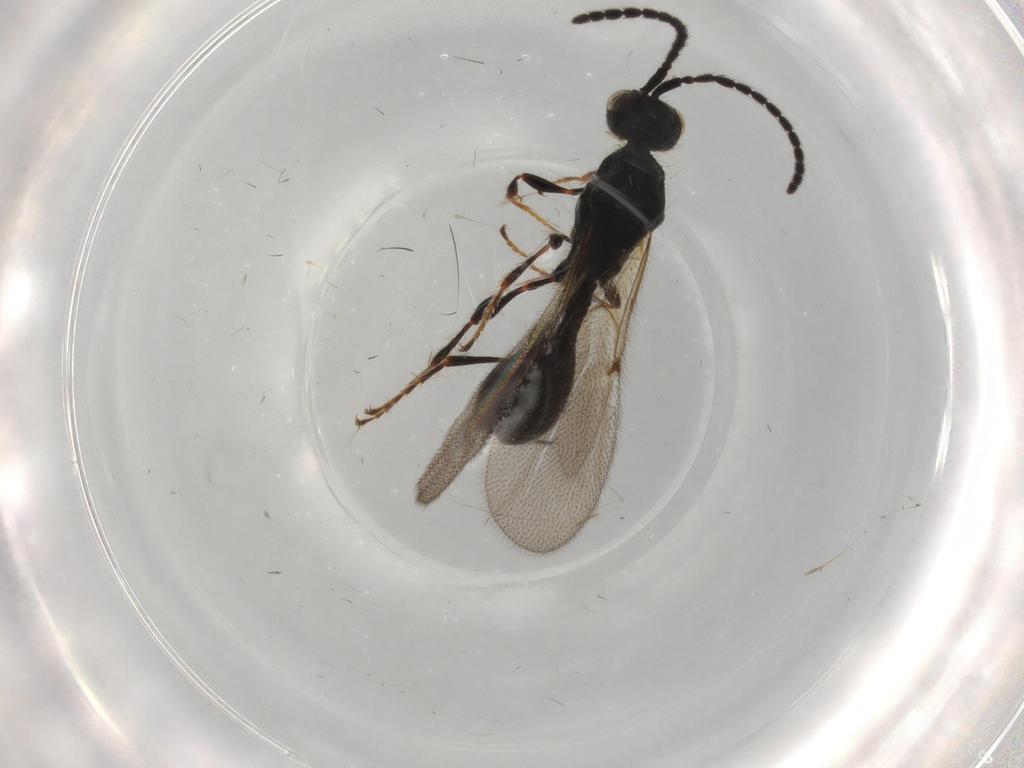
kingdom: Animalia
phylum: Arthropoda
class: Insecta
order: Hymenoptera
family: Diapriidae
